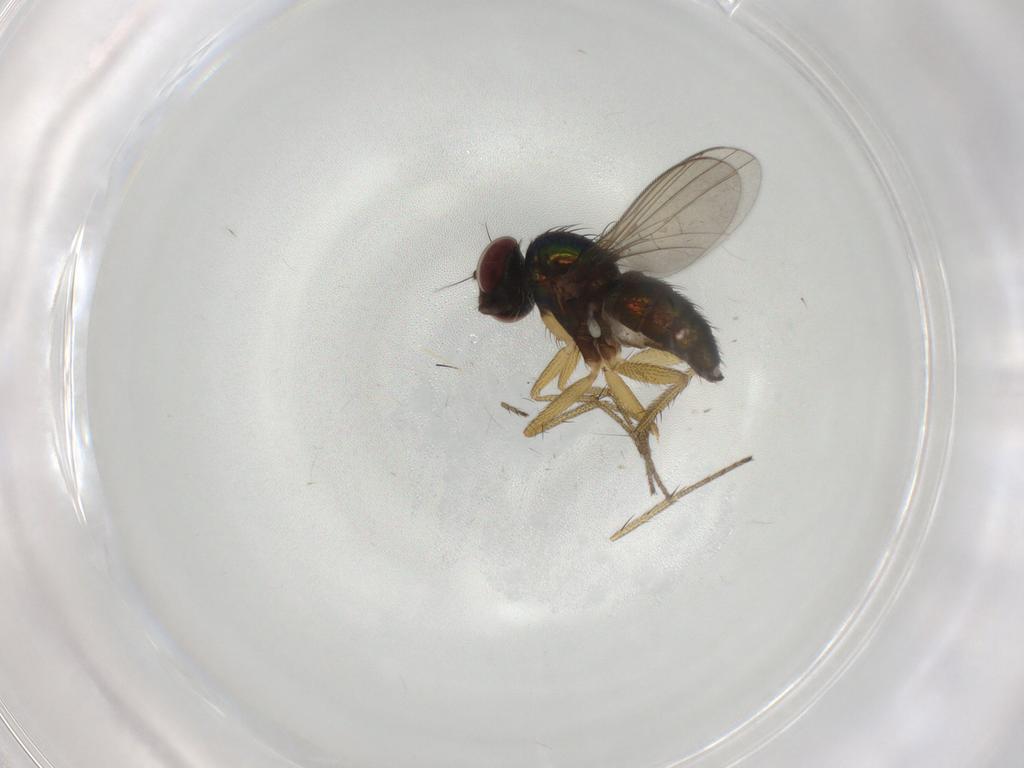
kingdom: Animalia
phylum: Arthropoda
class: Insecta
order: Diptera
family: Dolichopodidae
